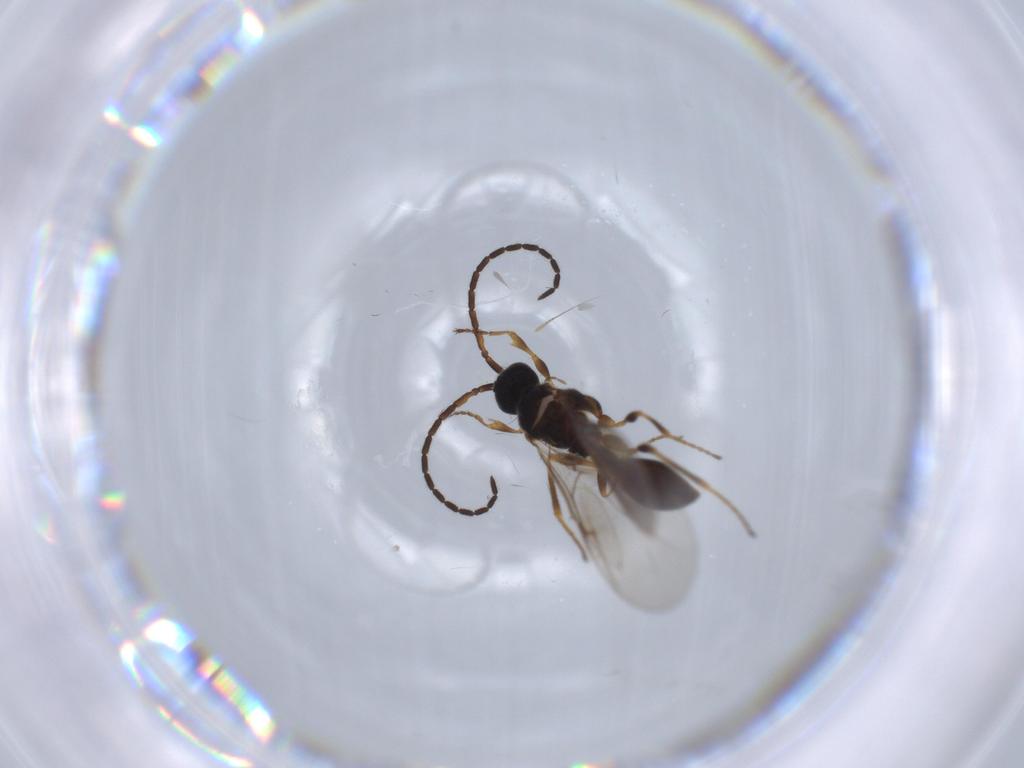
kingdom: Animalia
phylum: Arthropoda
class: Insecta
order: Hymenoptera
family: Scelionidae
